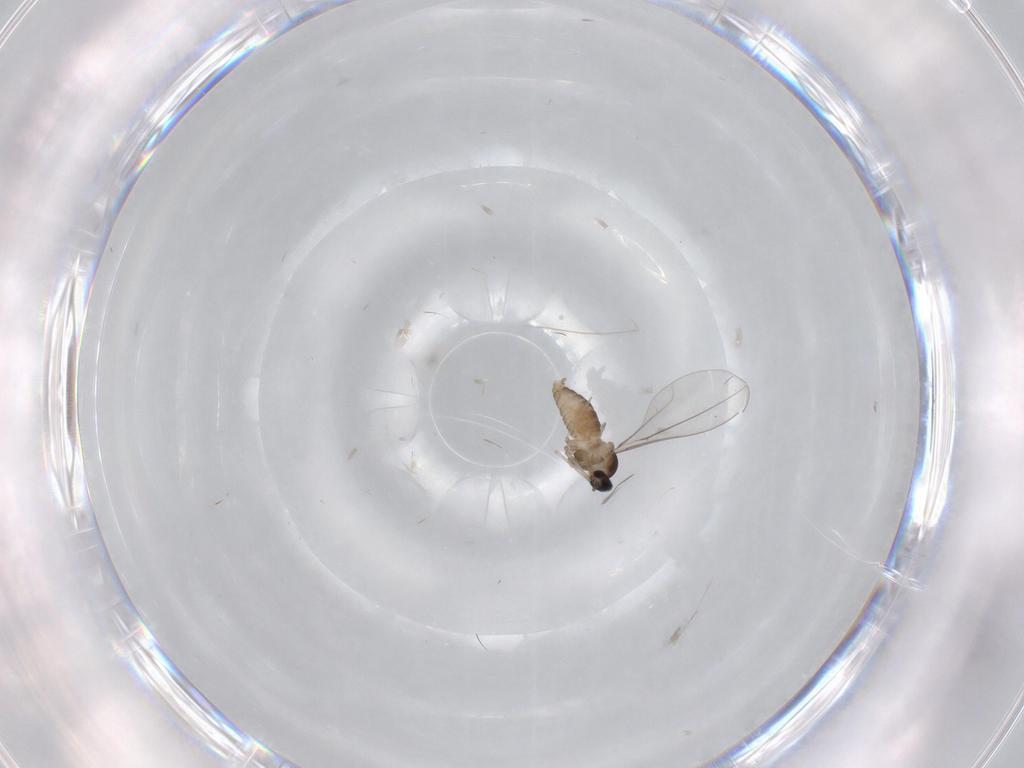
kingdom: Animalia
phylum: Arthropoda
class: Insecta
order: Diptera
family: Cecidomyiidae
